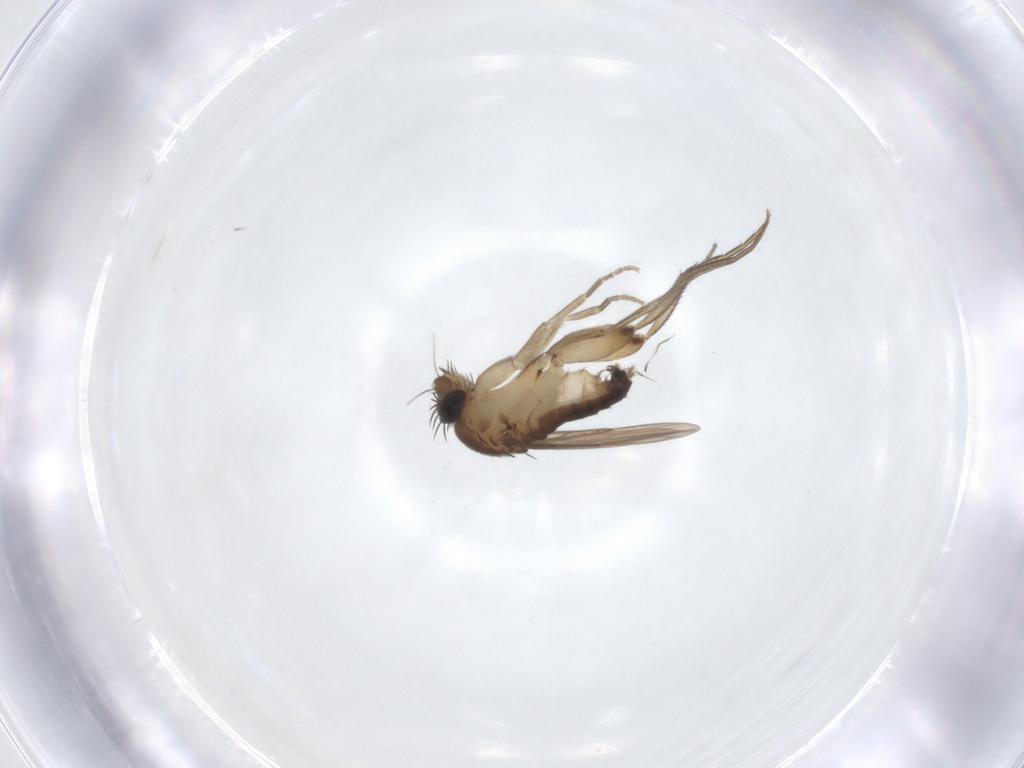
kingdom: Animalia
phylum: Arthropoda
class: Insecta
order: Diptera
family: Phoridae
